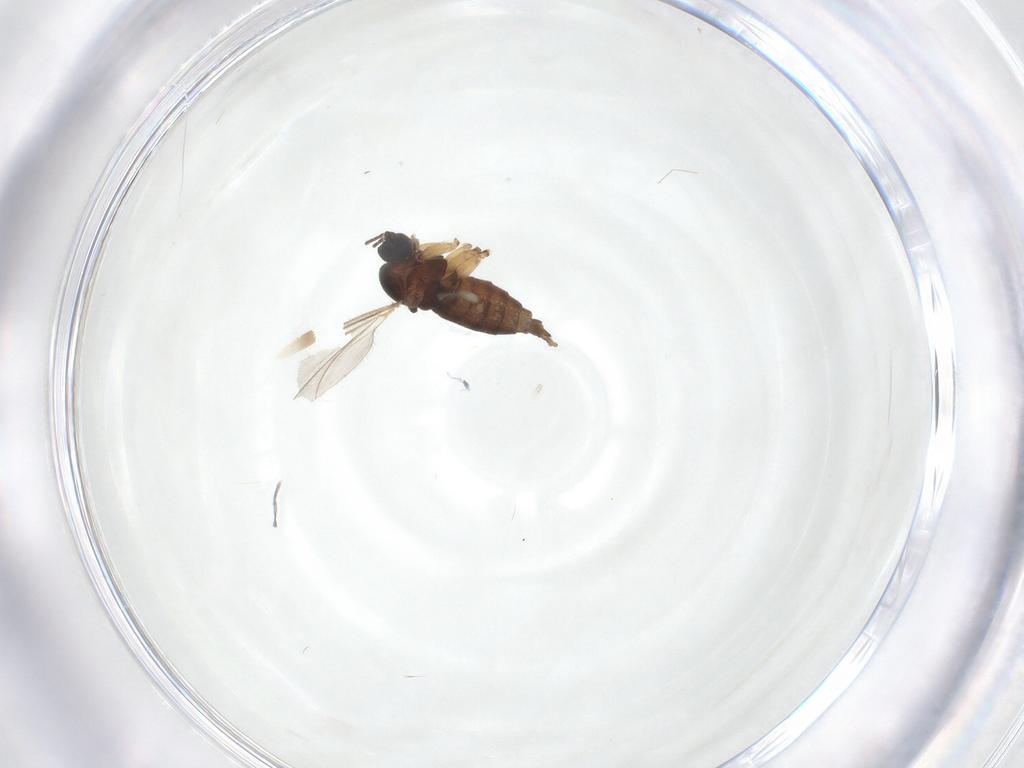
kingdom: Animalia
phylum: Arthropoda
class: Insecta
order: Diptera
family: Sciaridae
